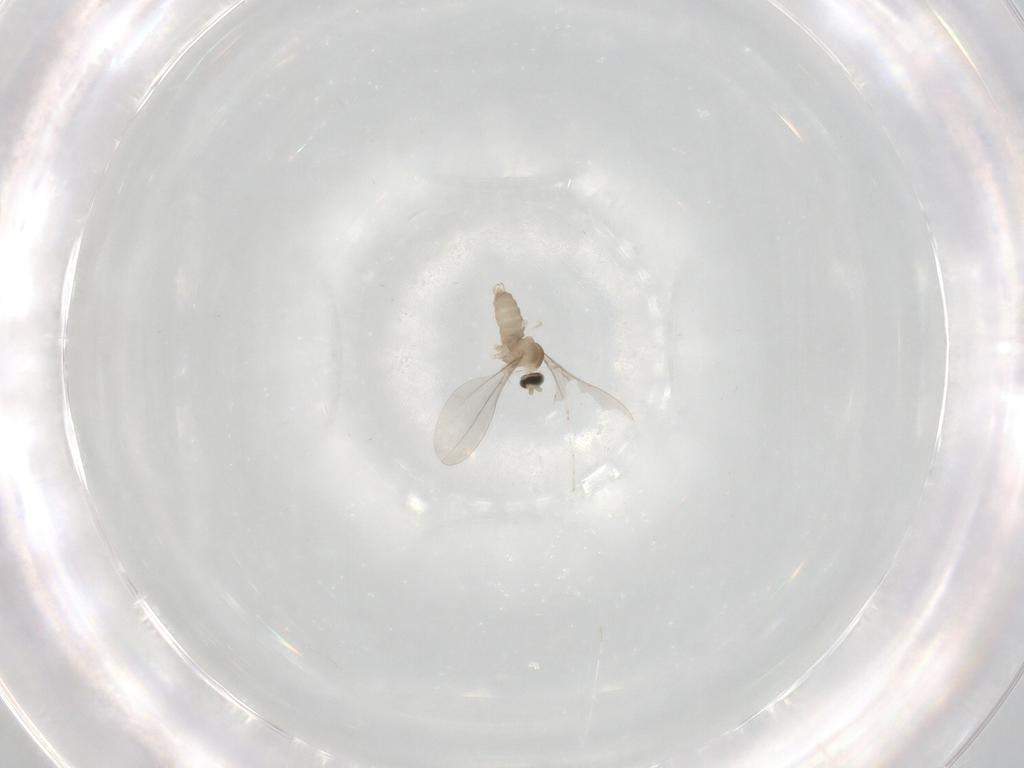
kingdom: Animalia
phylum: Arthropoda
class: Insecta
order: Diptera
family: Cecidomyiidae
